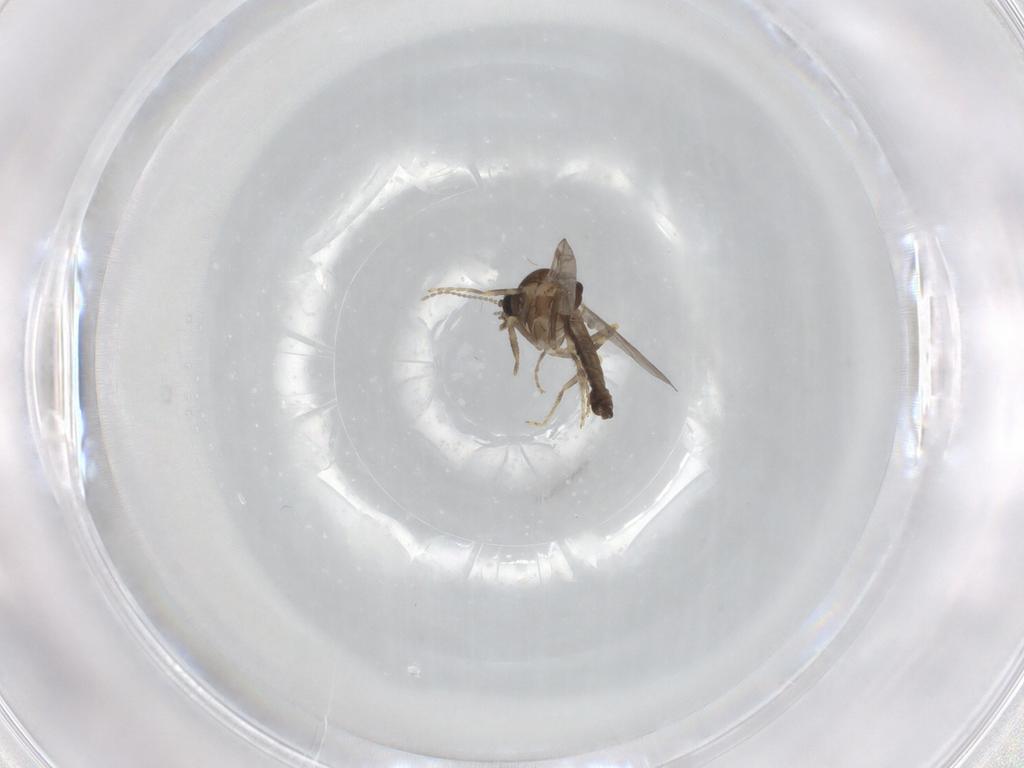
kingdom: Animalia
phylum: Arthropoda
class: Insecta
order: Diptera
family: Ceratopogonidae
